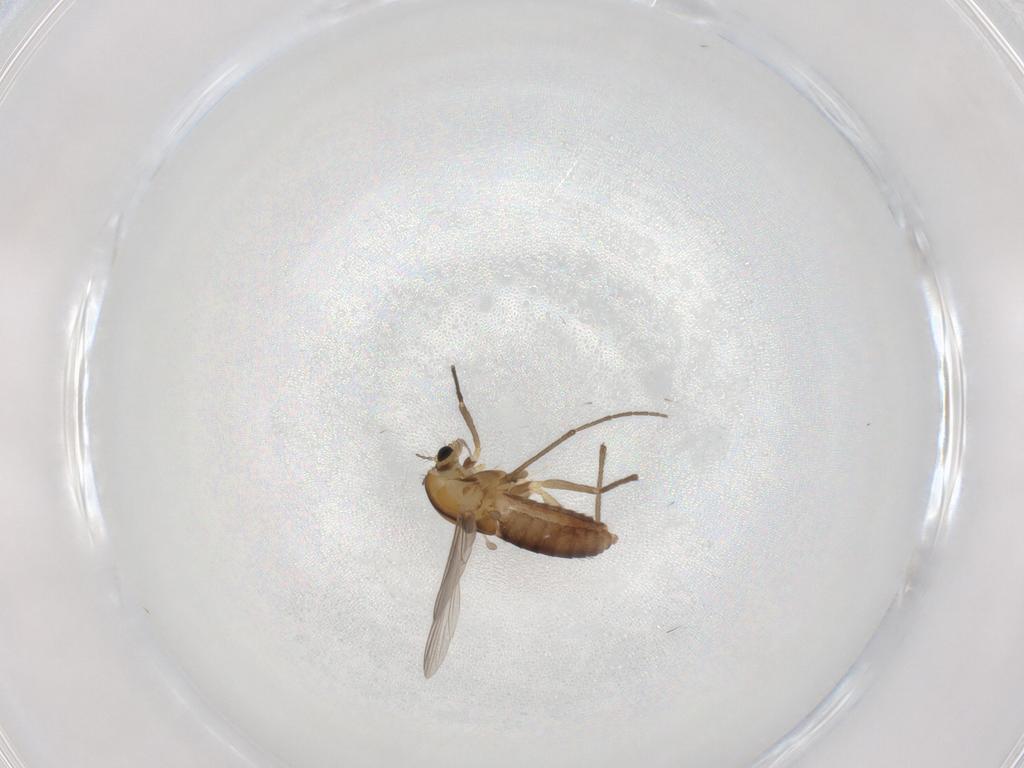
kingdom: Animalia
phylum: Arthropoda
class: Insecta
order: Diptera
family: Chironomidae
